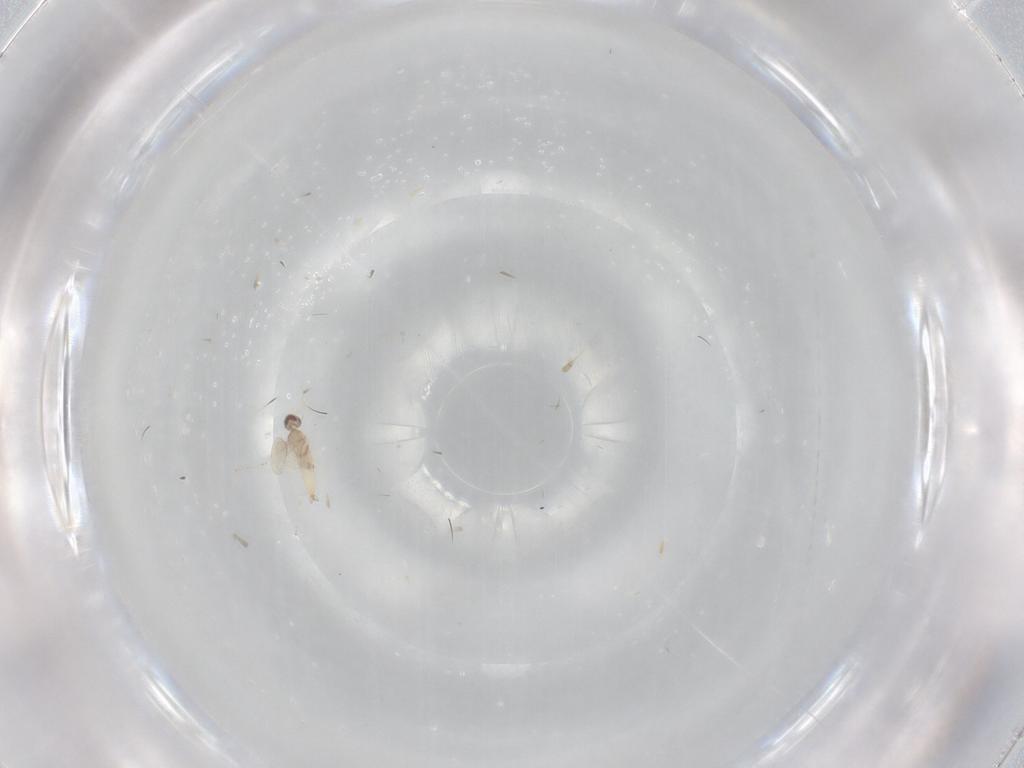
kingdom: Animalia
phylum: Arthropoda
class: Insecta
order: Diptera
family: Cecidomyiidae
